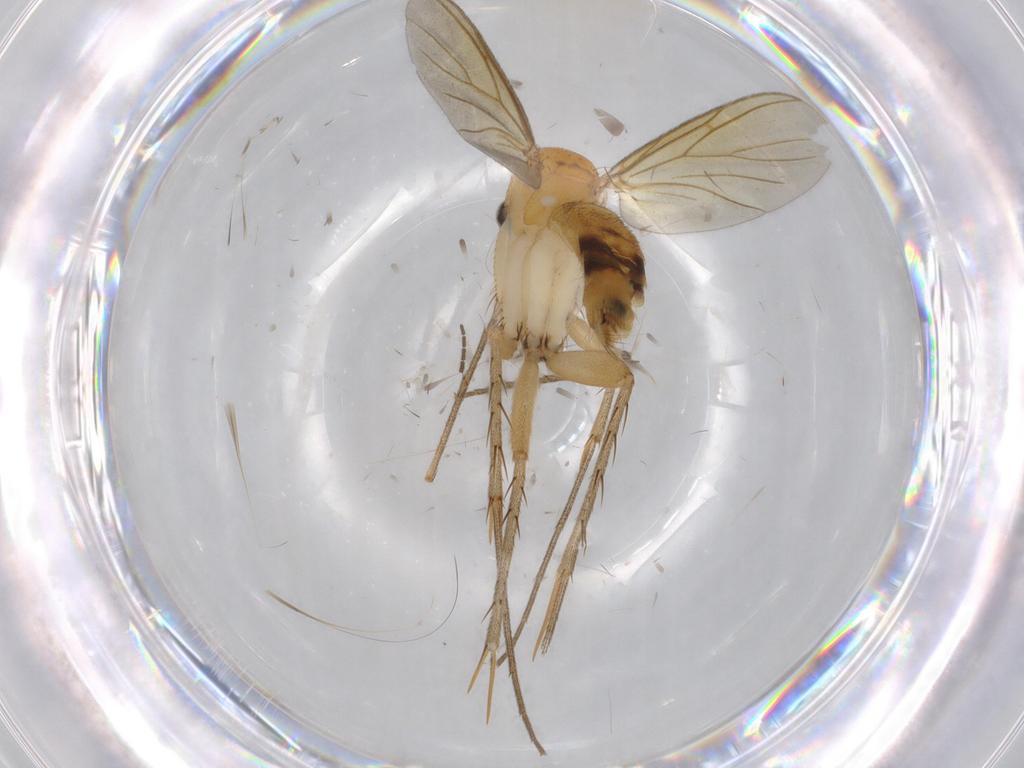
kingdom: Animalia
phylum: Arthropoda
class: Insecta
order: Diptera
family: Cecidomyiidae
